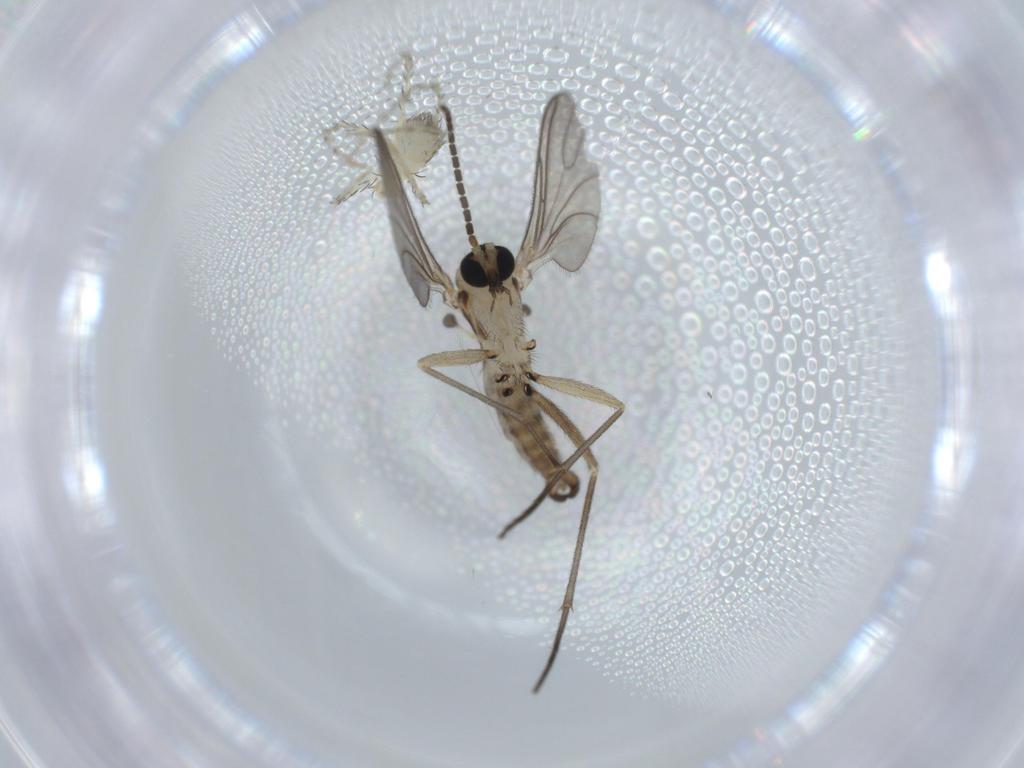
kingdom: Animalia
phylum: Arthropoda
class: Insecta
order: Diptera
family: Sciaridae
